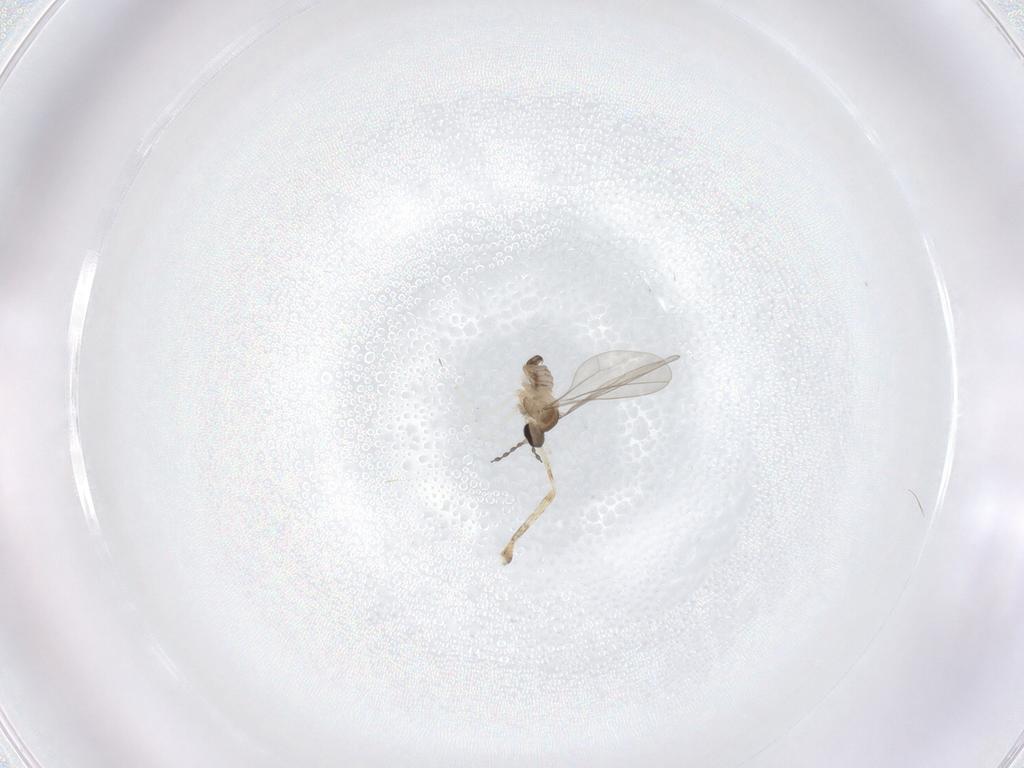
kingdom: Animalia
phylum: Arthropoda
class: Insecta
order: Diptera
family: Cecidomyiidae
